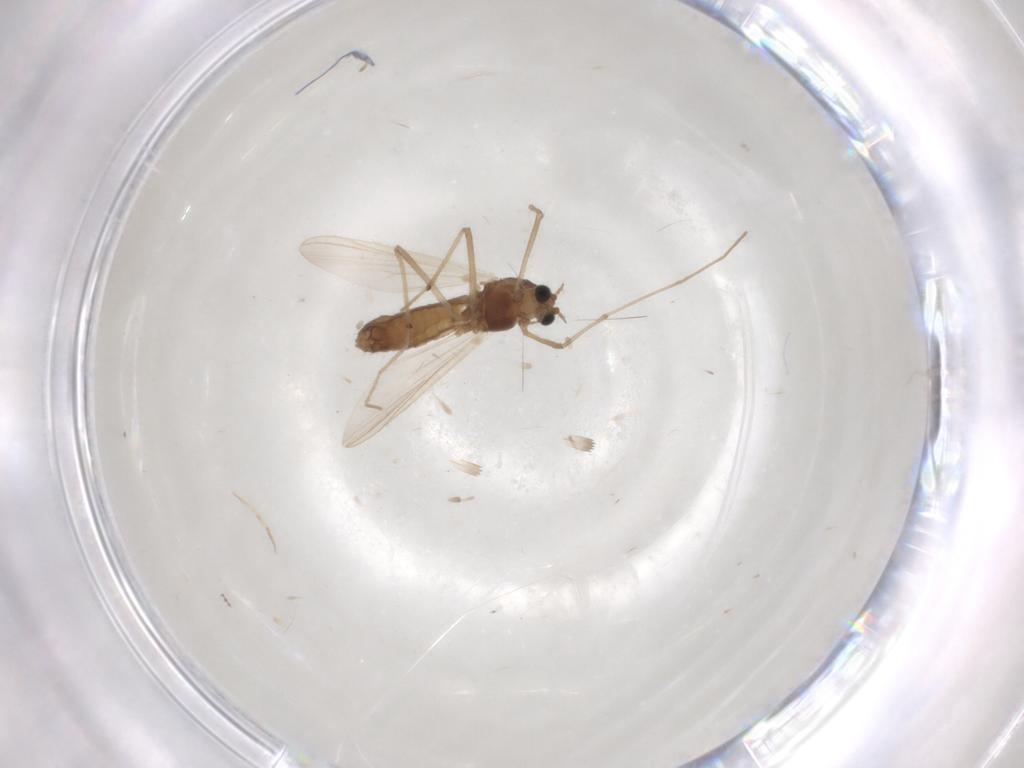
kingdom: Animalia
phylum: Arthropoda
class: Insecta
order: Diptera
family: Chironomidae
